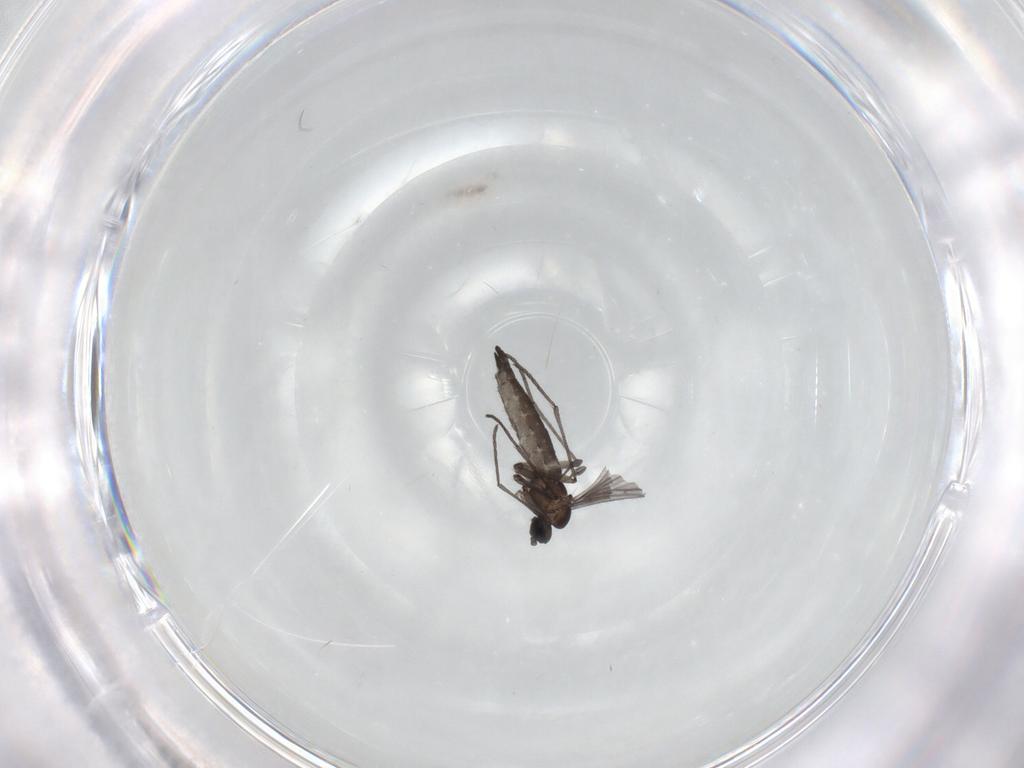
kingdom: Animalia
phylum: Arthropoda
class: Insecta
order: Diptera
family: Sciaridae
